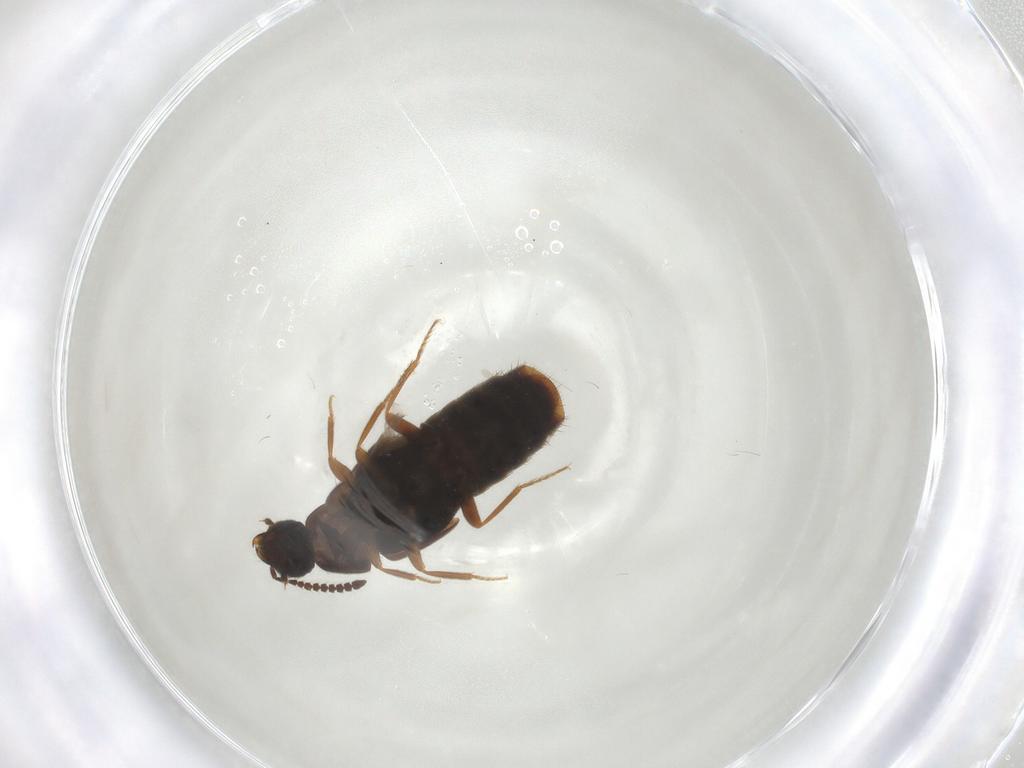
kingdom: Animalia
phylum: Arthropoda
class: Insecta
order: Coleoptera
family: Staphylinidae
